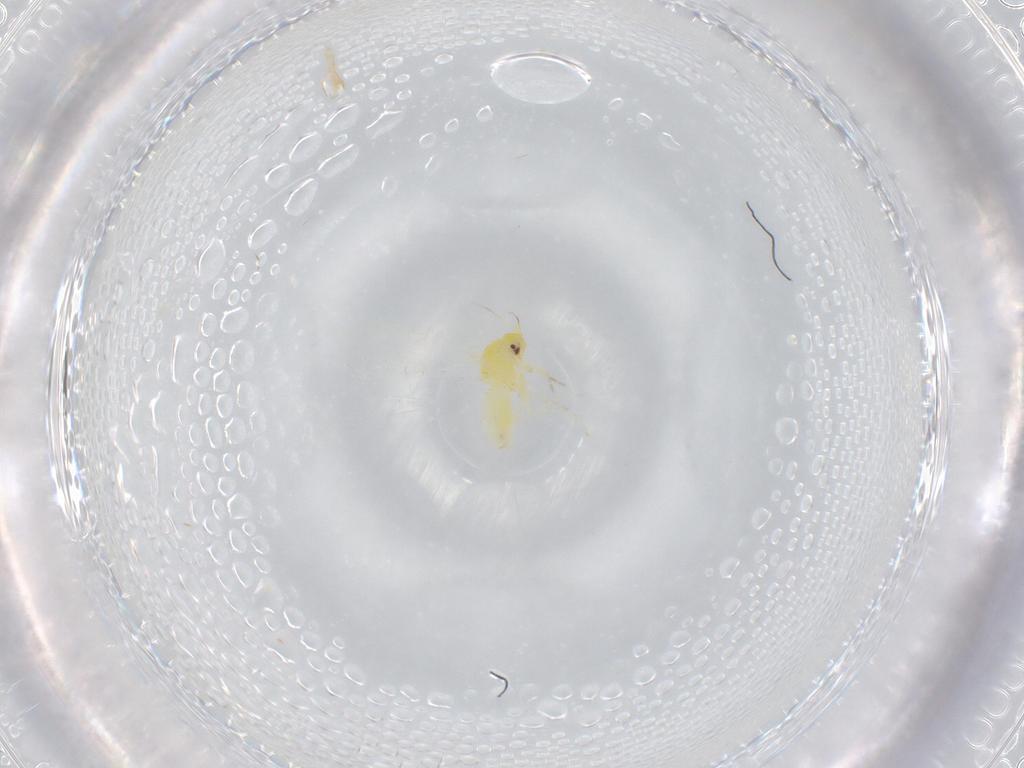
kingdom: Animalia
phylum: Arthropoda
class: Insecta
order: Hemiptera
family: Aleyrodidae
